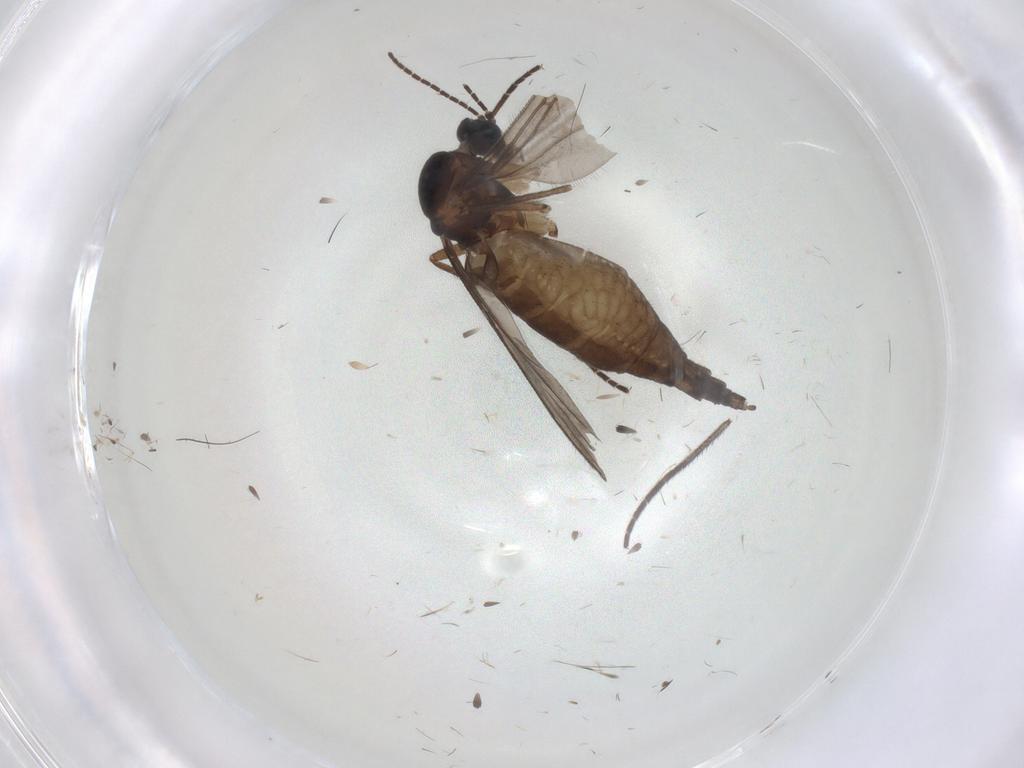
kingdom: Animalia
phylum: Arthropoda
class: Insecta
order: Diptera
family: Sciaridae
